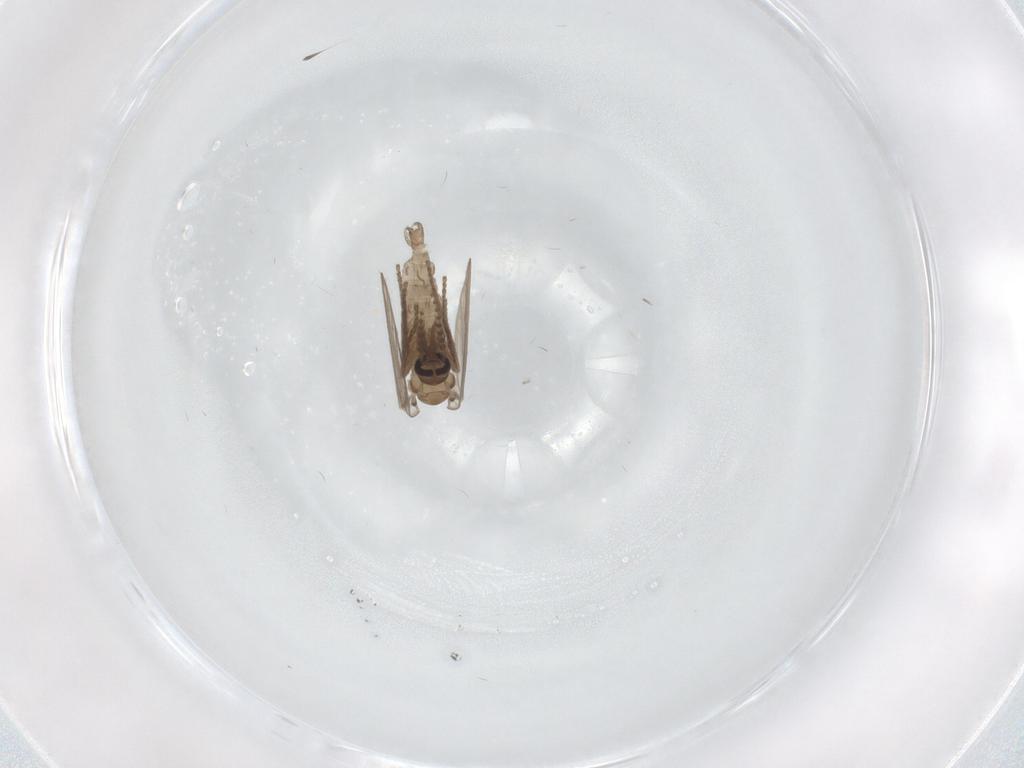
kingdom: Animalia
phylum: Arthropoda
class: Insecta
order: Diptera
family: Psychodidae
